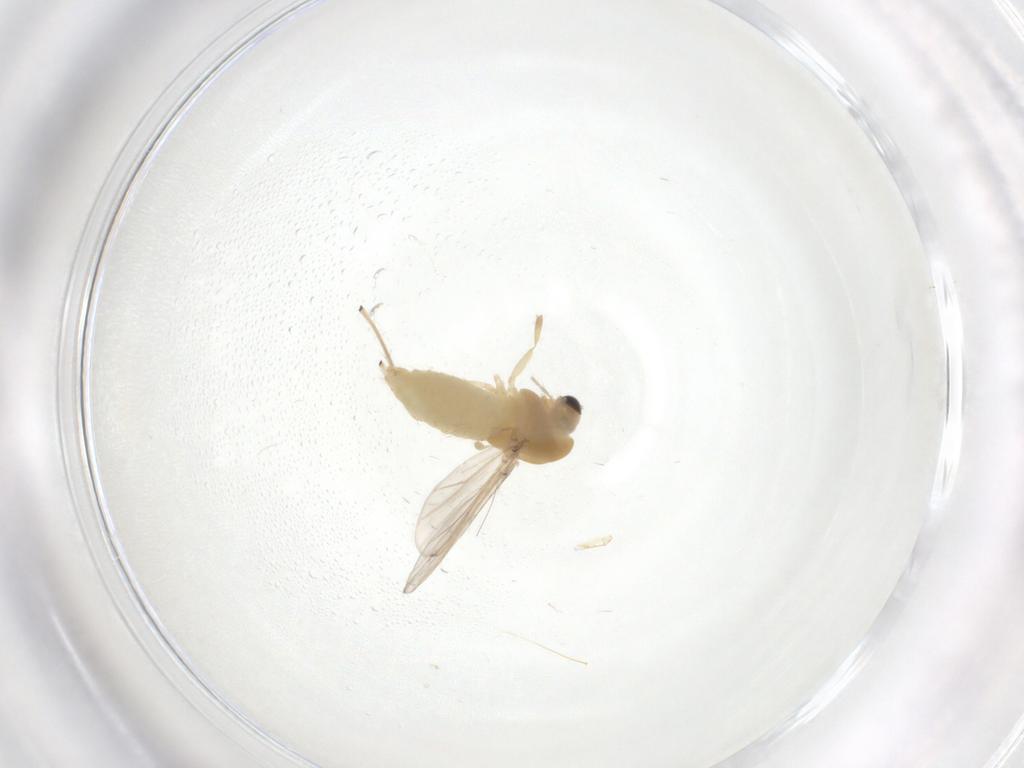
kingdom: Animalia
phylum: Arthropoda
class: Insecta
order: Diptera
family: Chironomidae
